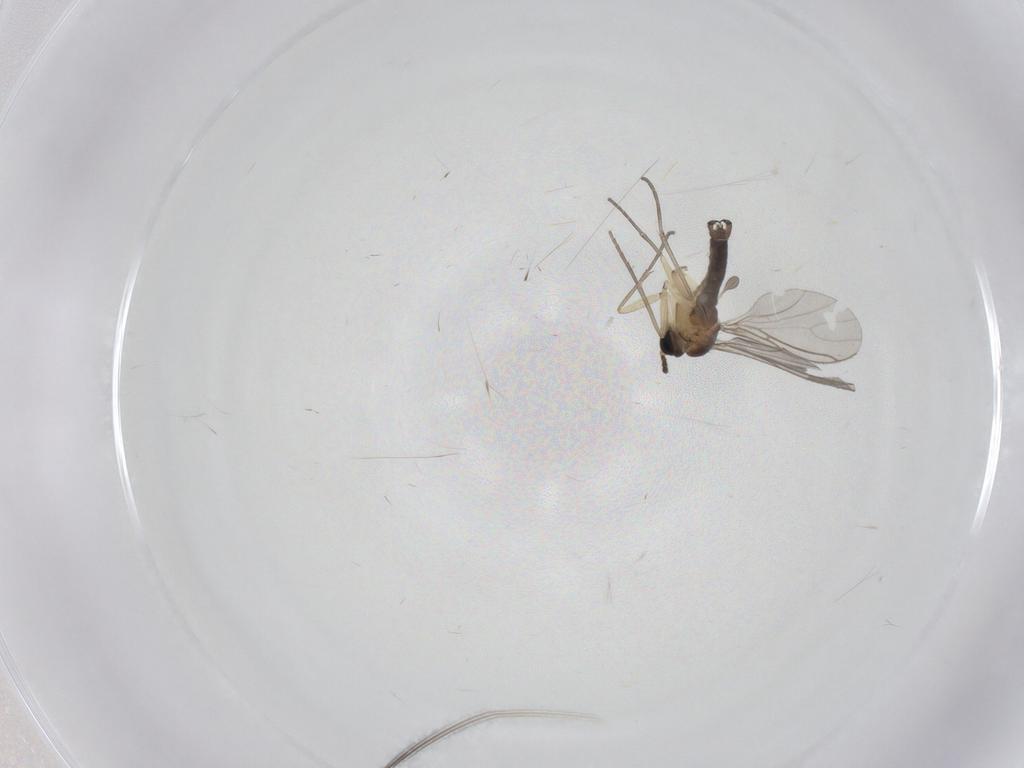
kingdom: Animalia
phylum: Arthropoda
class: Insecta
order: Diptera
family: Sciaridae
